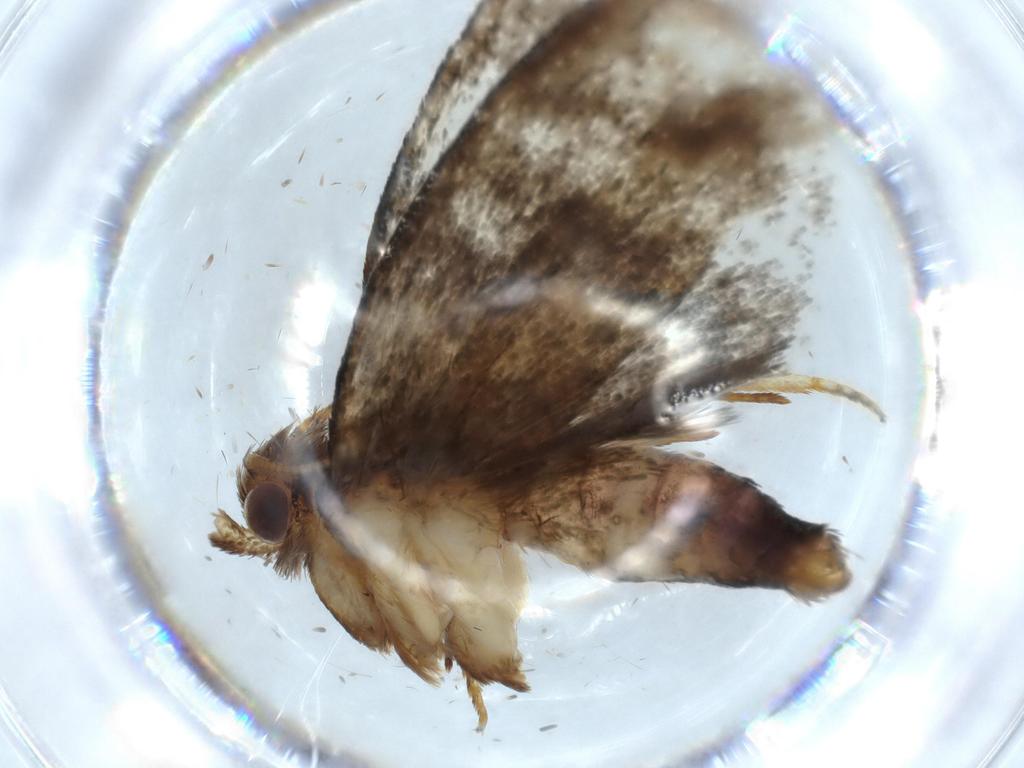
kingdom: Animalia
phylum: Arthropoda
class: Insecta
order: Lepidoptera
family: Tineidae
